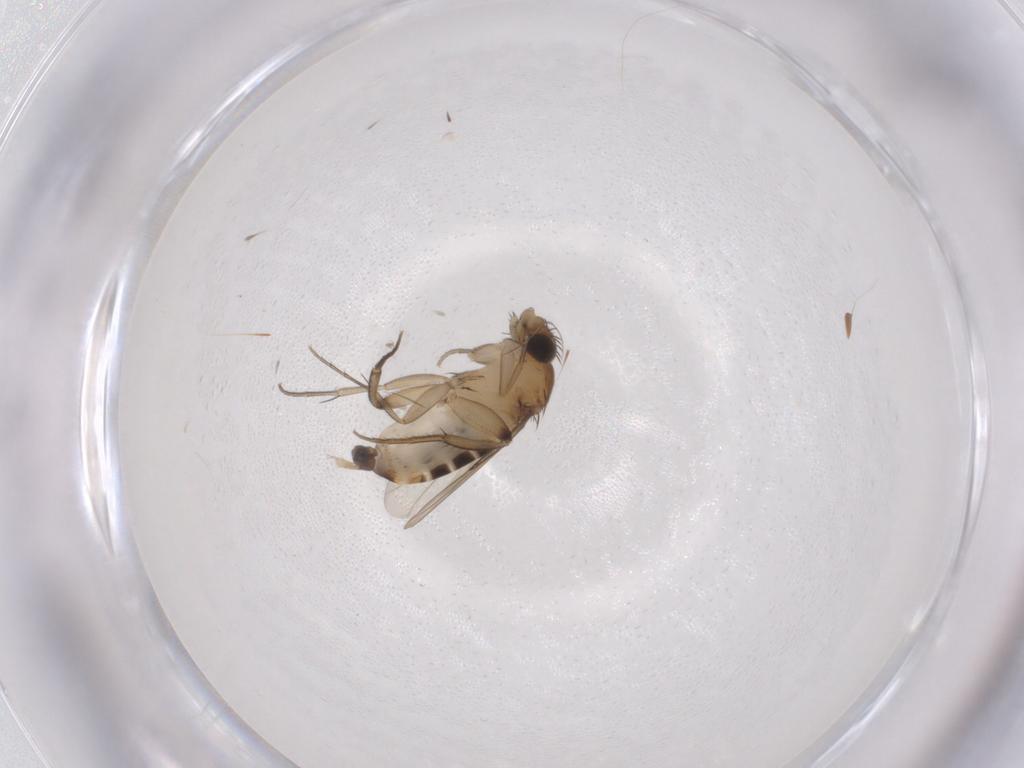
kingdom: Animalia
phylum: Arthropoda
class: Insecta
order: Diptera
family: Phoridae
